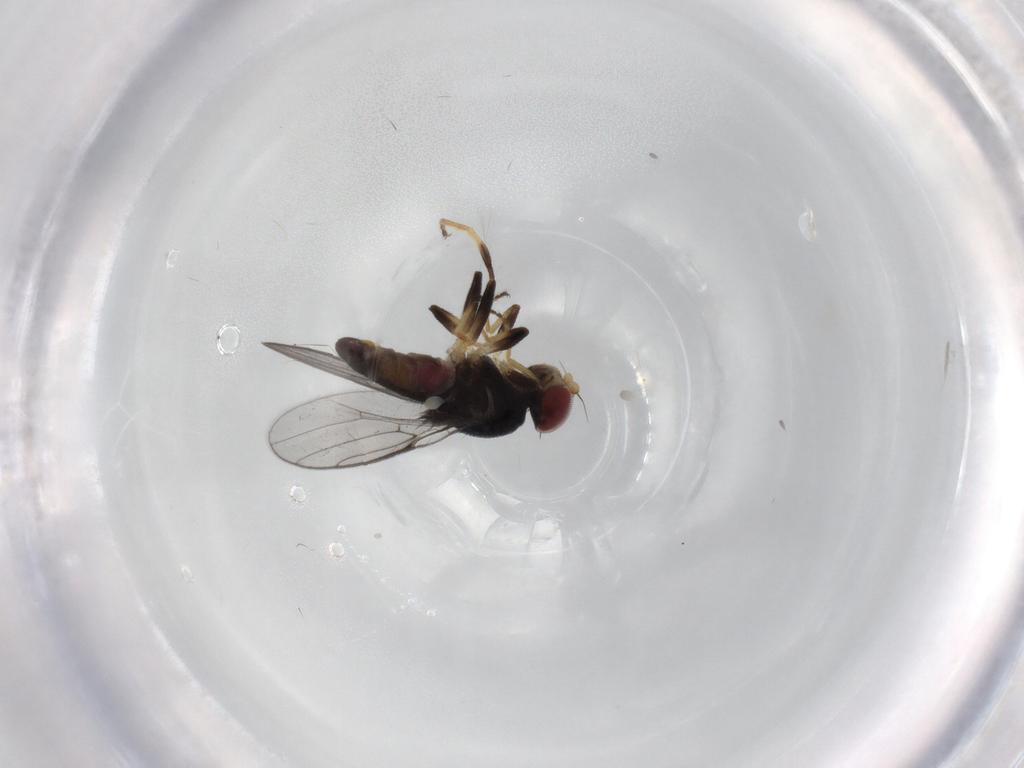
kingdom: Animalia
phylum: Arthropoda
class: Insecta
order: Diptera
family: Chloropidae
